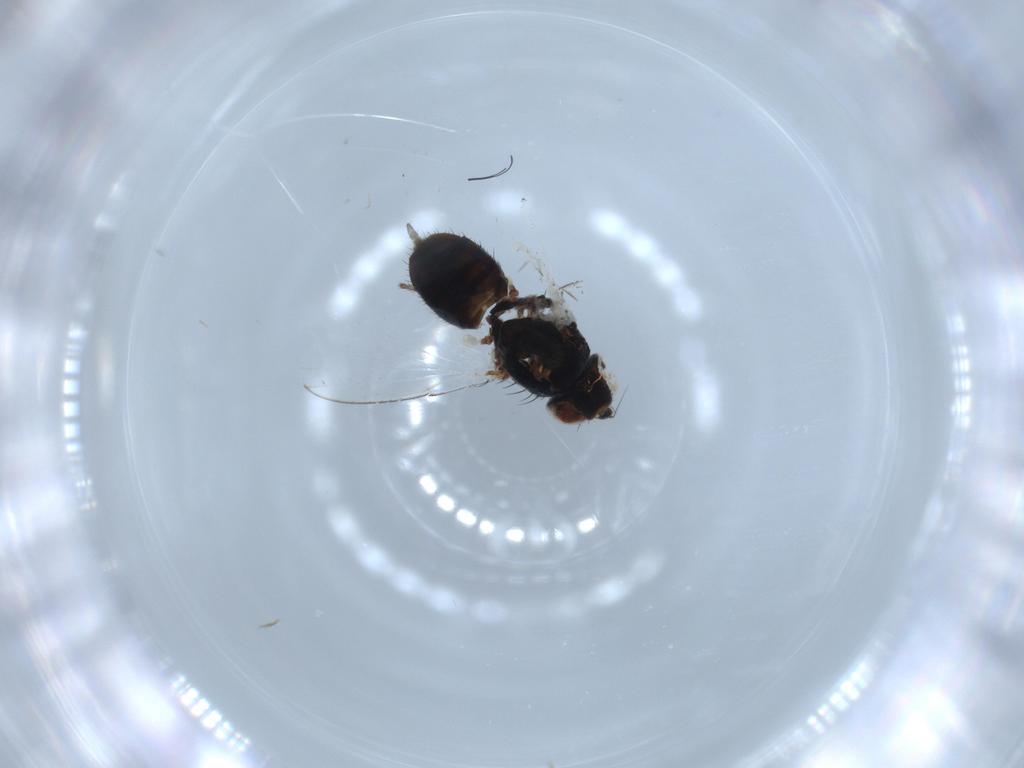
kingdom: Animalia
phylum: Arthropoda
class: Insecta
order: Diptera
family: Milichiidae
